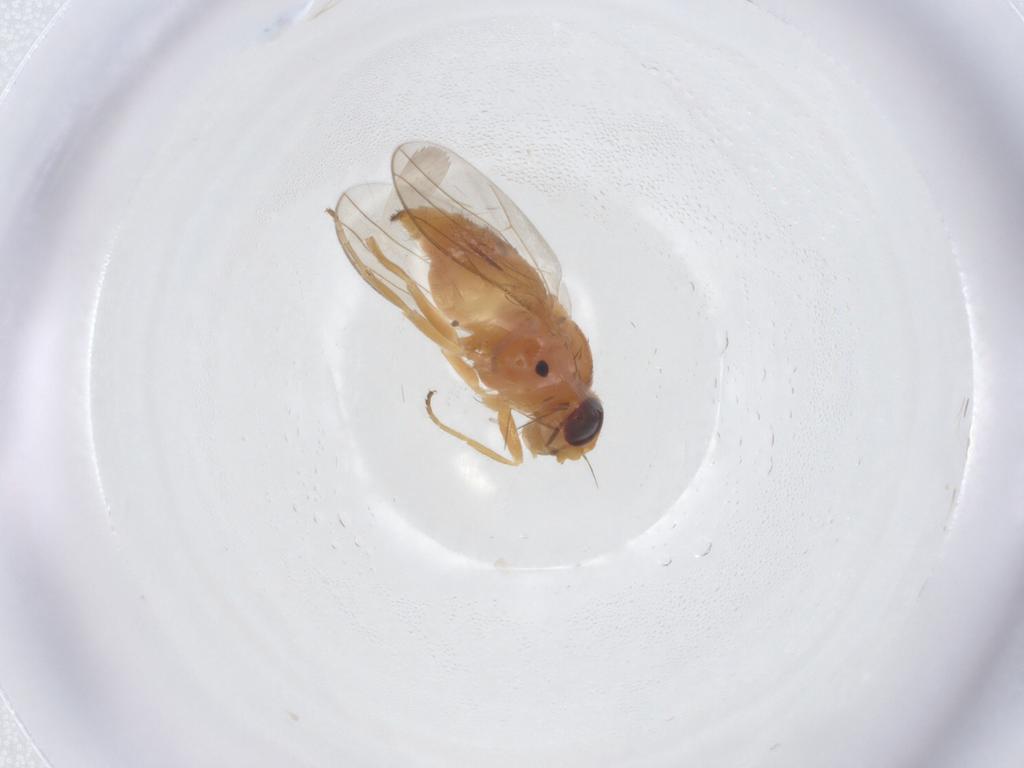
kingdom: Animalia
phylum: Arthropoda
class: Insecta
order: Diptera
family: Chloropidae
